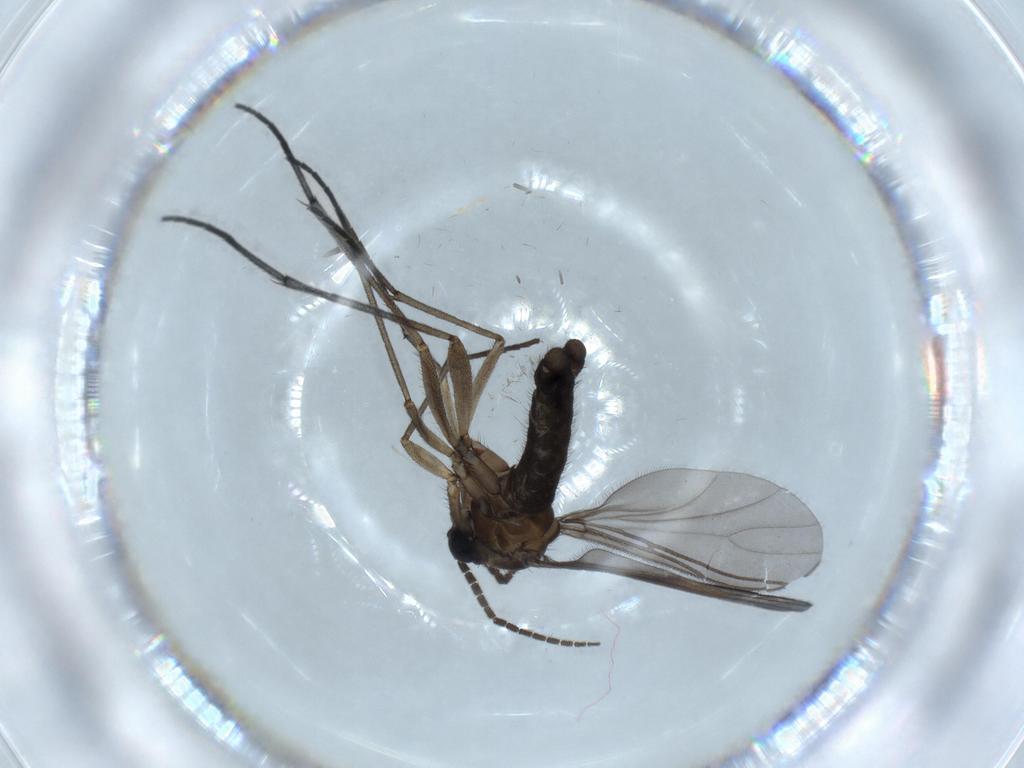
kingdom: Animalia
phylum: Arthropoda
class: Insecta
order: Diptera
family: Sciaridae
